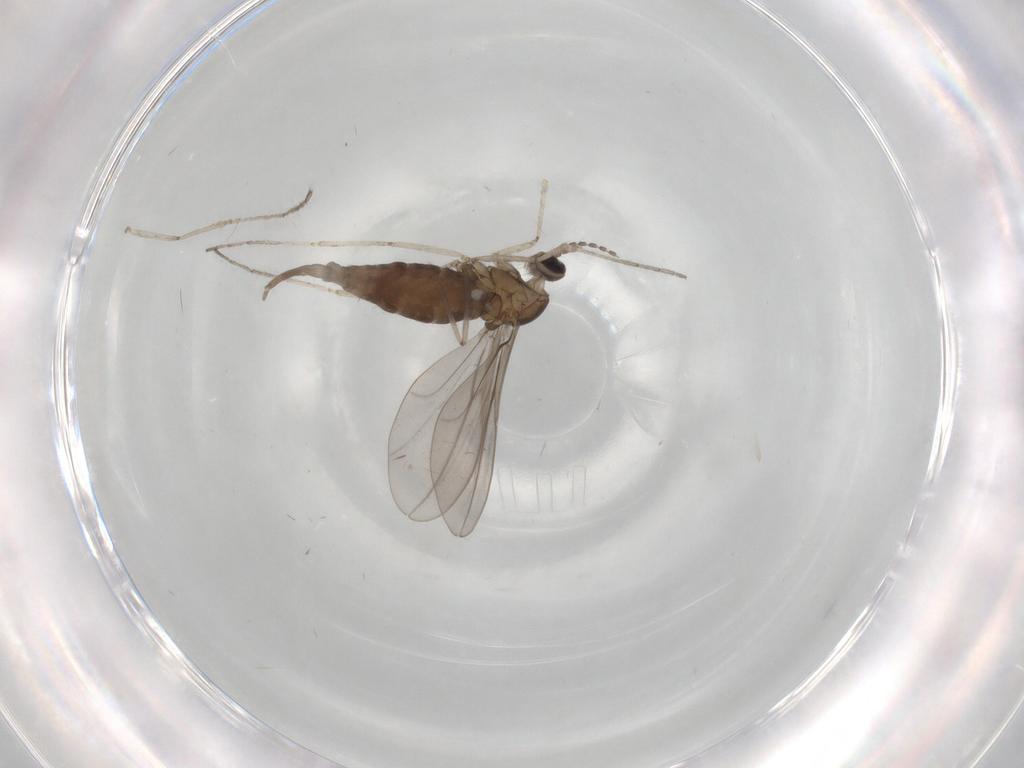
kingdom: Animalia
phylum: Arthropoda
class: Insecta
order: Diptera
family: Cecidomyiidae
